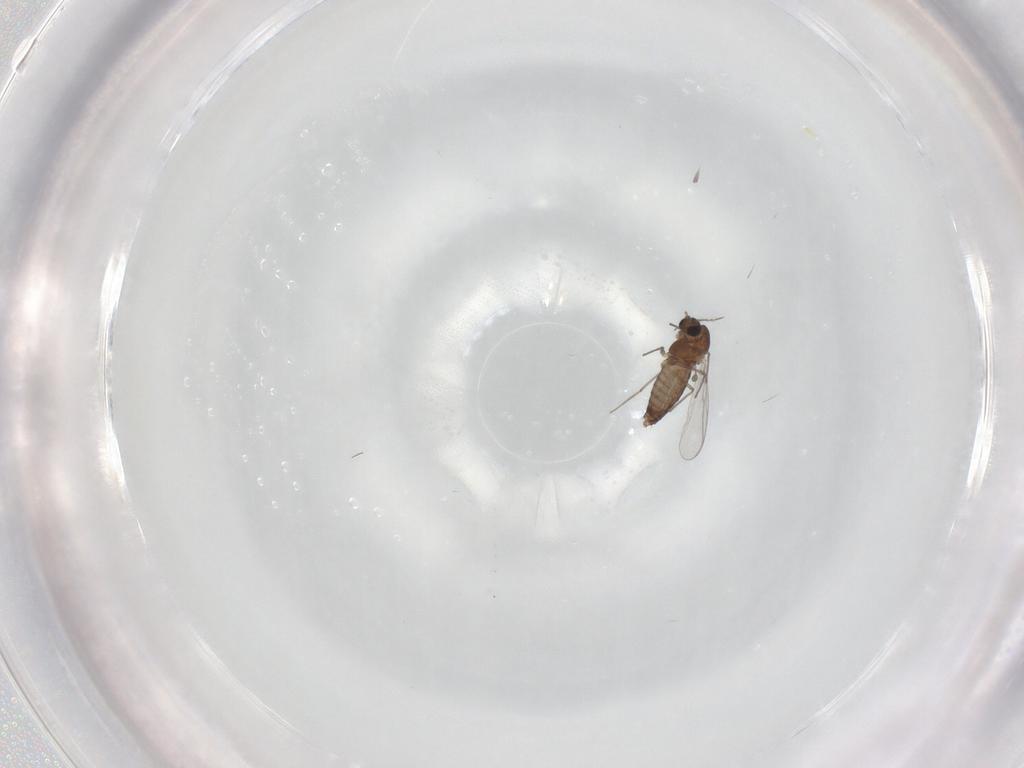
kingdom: Animalia
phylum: Arthropoda
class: Insecta
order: Diptera
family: Chironomidae
